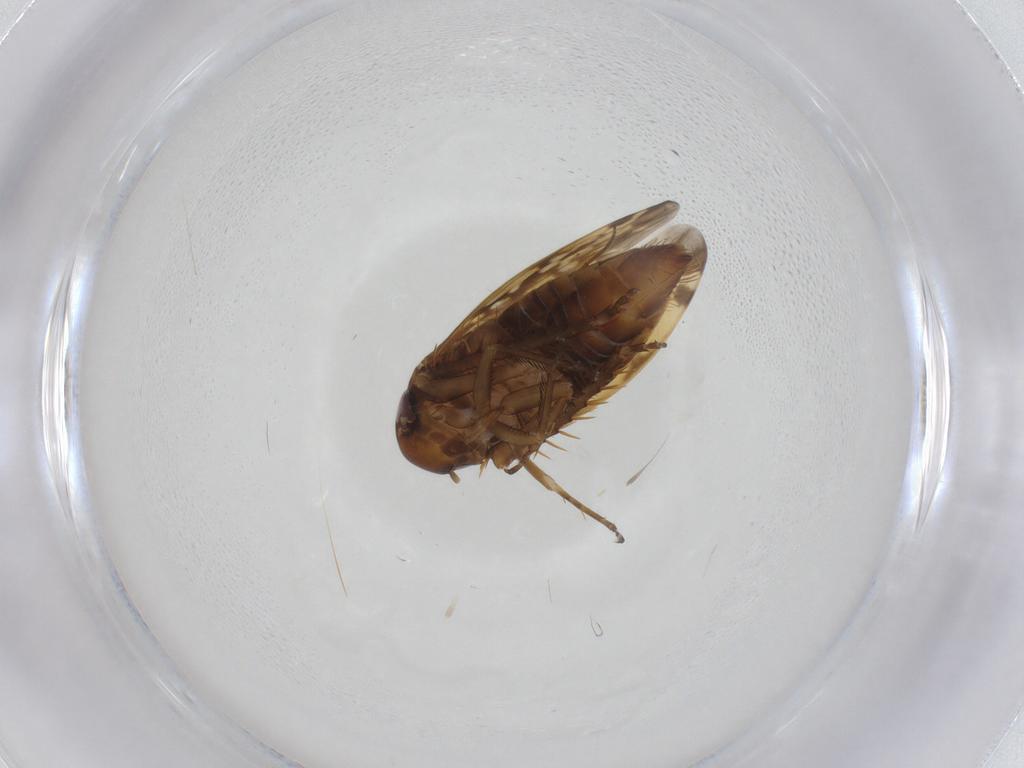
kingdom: Animalia
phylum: Arthropoda
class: Insecta
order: Hemiptera
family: Cicadellidae
